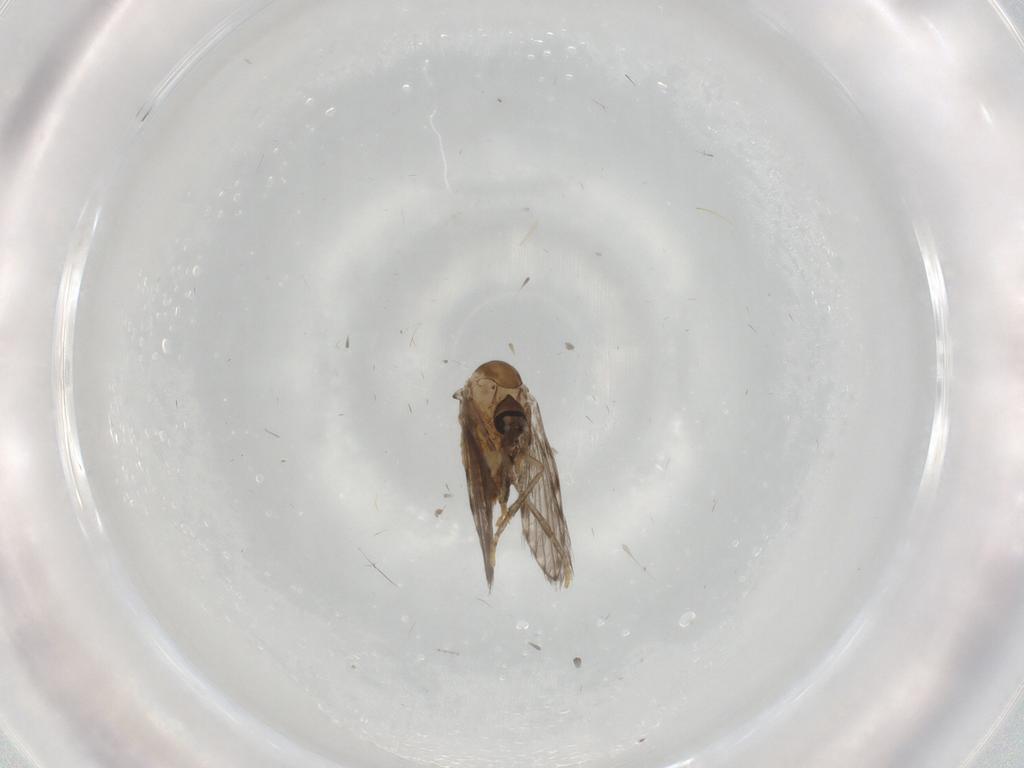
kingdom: Animalia
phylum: Arthropoda
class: Insecta
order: Diptera
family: Psychodidae
